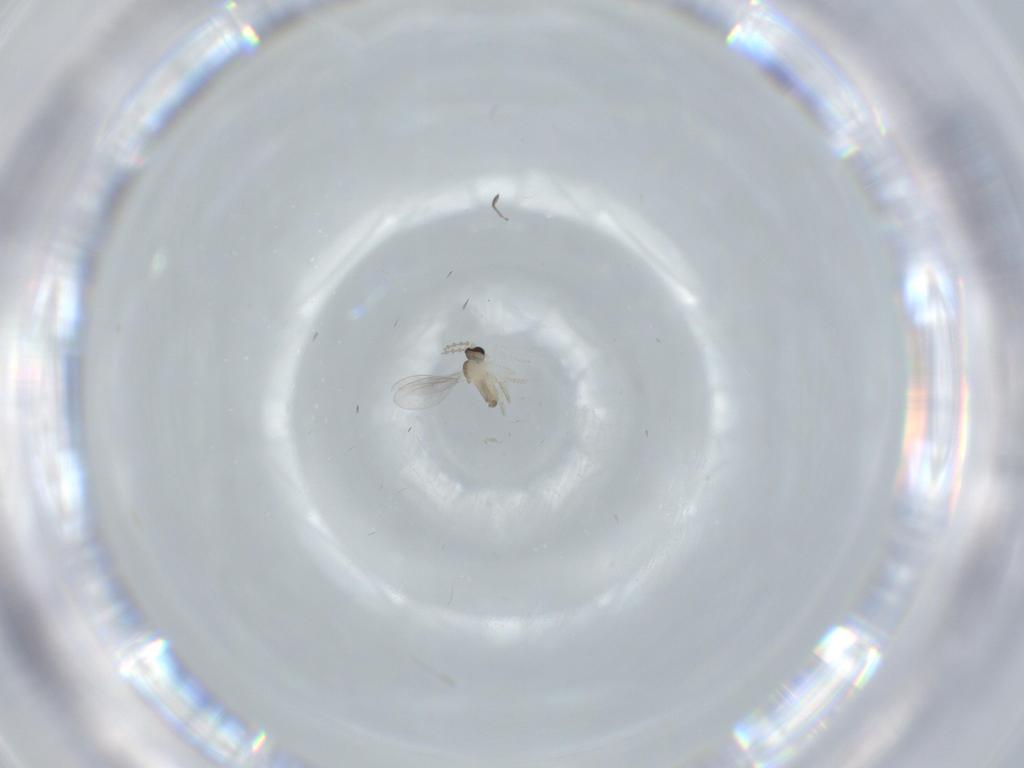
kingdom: Animalia
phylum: Arthropoda
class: Insecta
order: Diptera
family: Cecidomyiidae
